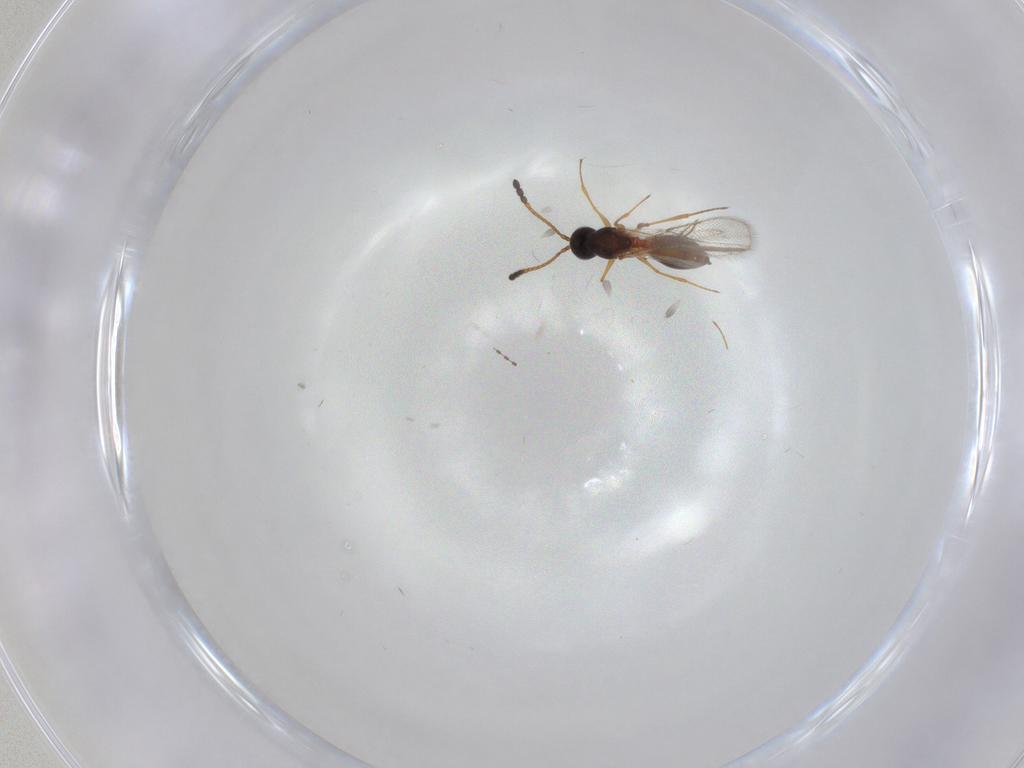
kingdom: Animalia
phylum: Arthropoda
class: Insecta
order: Hymenoptera
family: Figitidae
